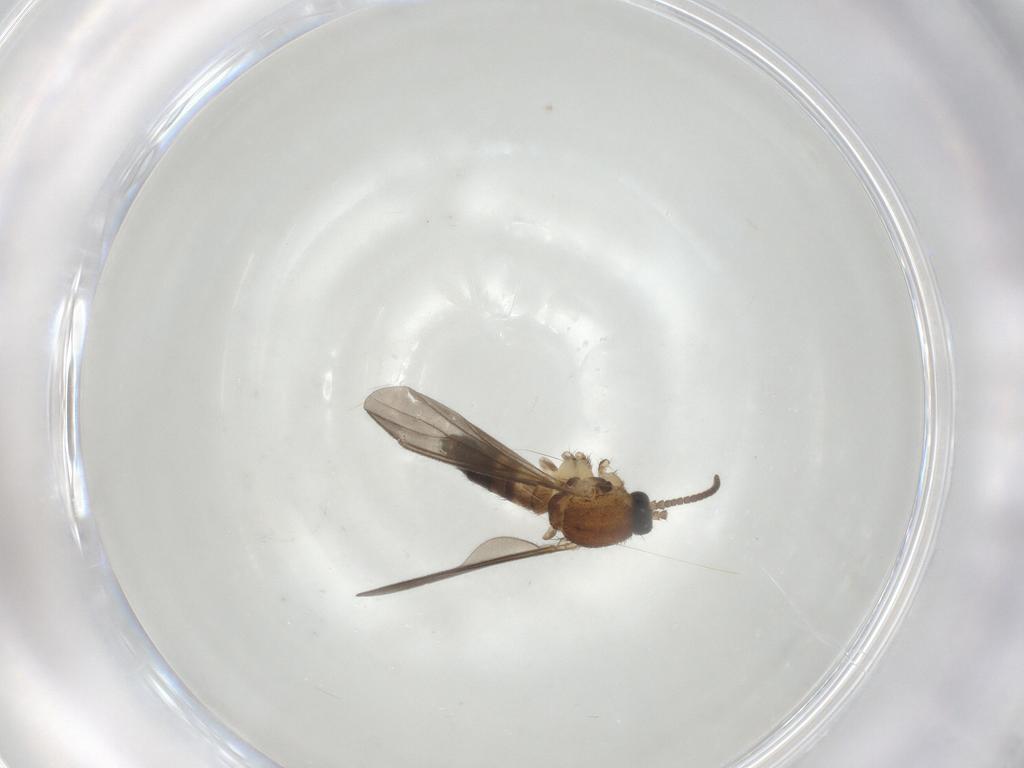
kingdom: Animalia
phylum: Arthropoda
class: Insecta
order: Diptera
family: Mycetophilidae
